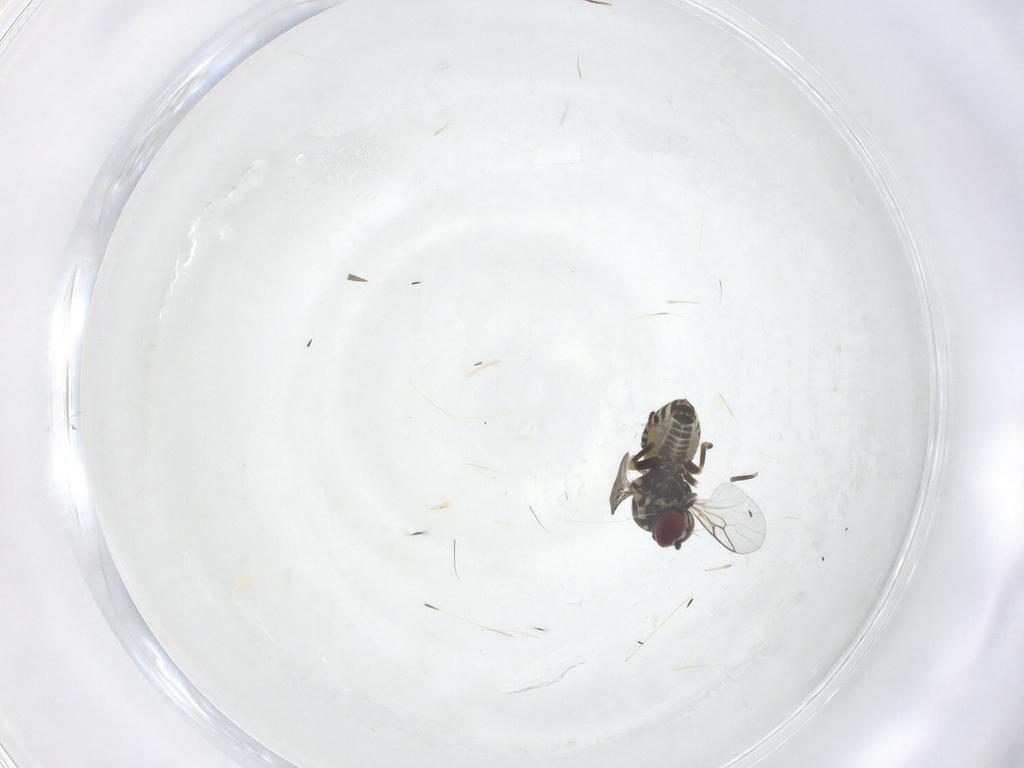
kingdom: Animalia
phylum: Arthropoda
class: Insecta
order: Diptera
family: Mythicomyiidae
